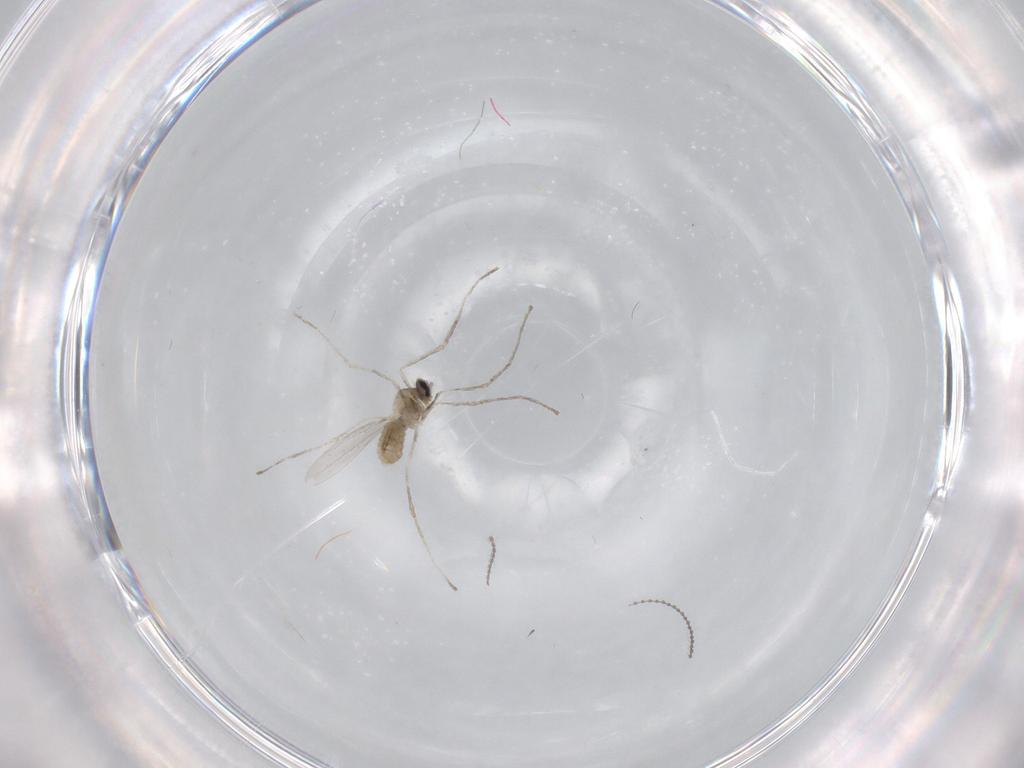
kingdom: Animalia
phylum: Arthropoda
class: Insecta
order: Diptera
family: Cecidomyiidae
